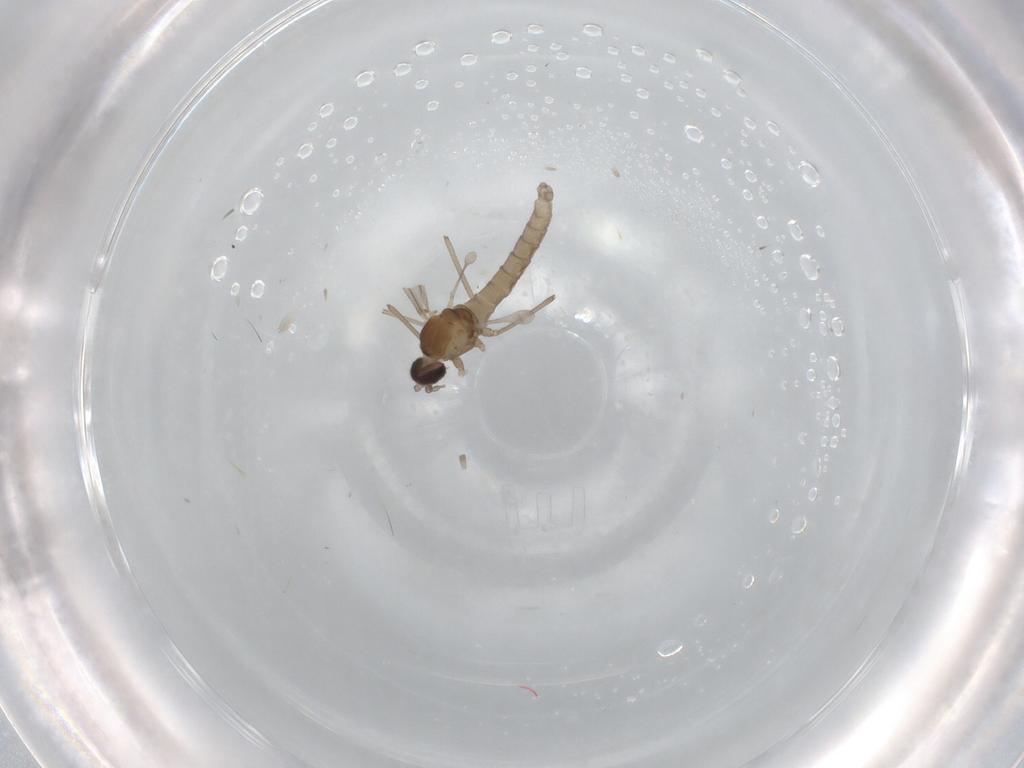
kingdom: Animalia
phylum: Arthropoda
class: Insecta
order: Diptera
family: Cecidomyiidae
